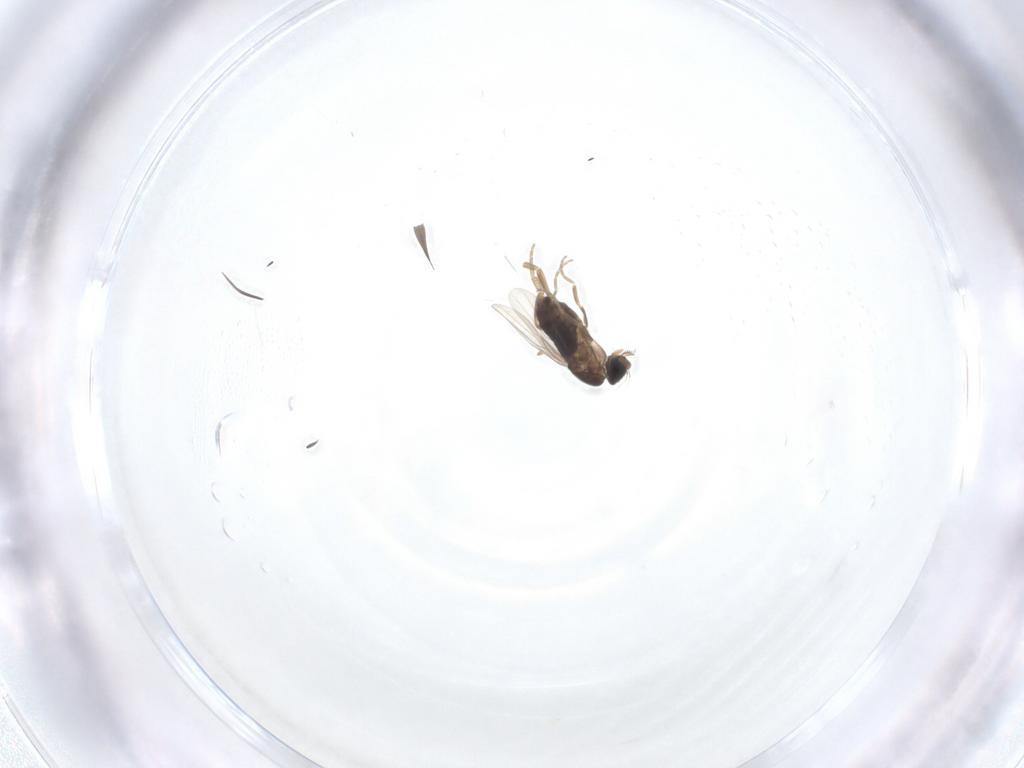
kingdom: Animalia
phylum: Arthropoda
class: Insecta
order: Diptera
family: Phoridae
